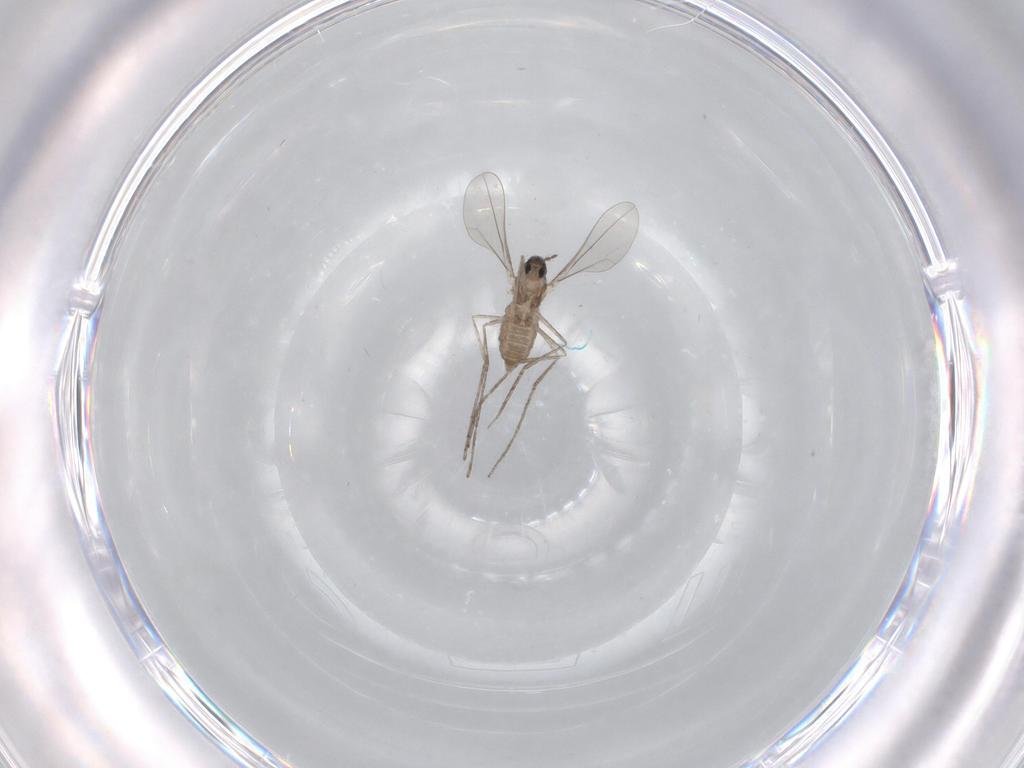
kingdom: Animalia
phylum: Arthropoda
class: Insecta
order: Diptera
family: Cecidomyiidae
